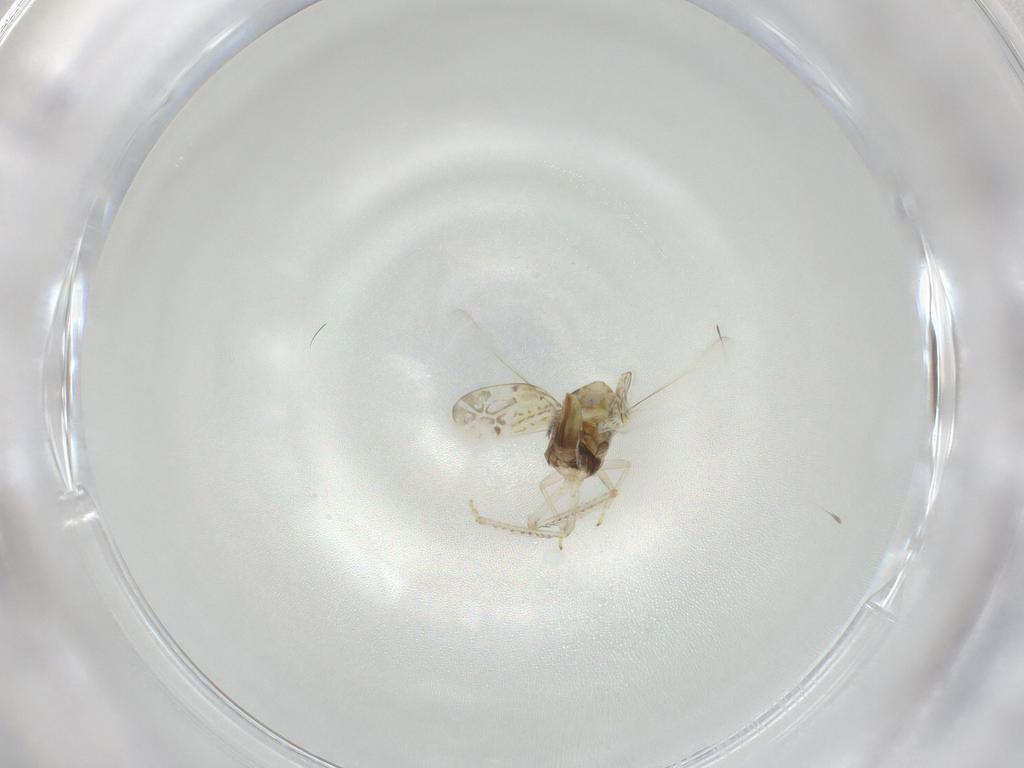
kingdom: Animalia
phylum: Arthropoda
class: Insecta
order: Hemiptera
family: Cicadellidae
